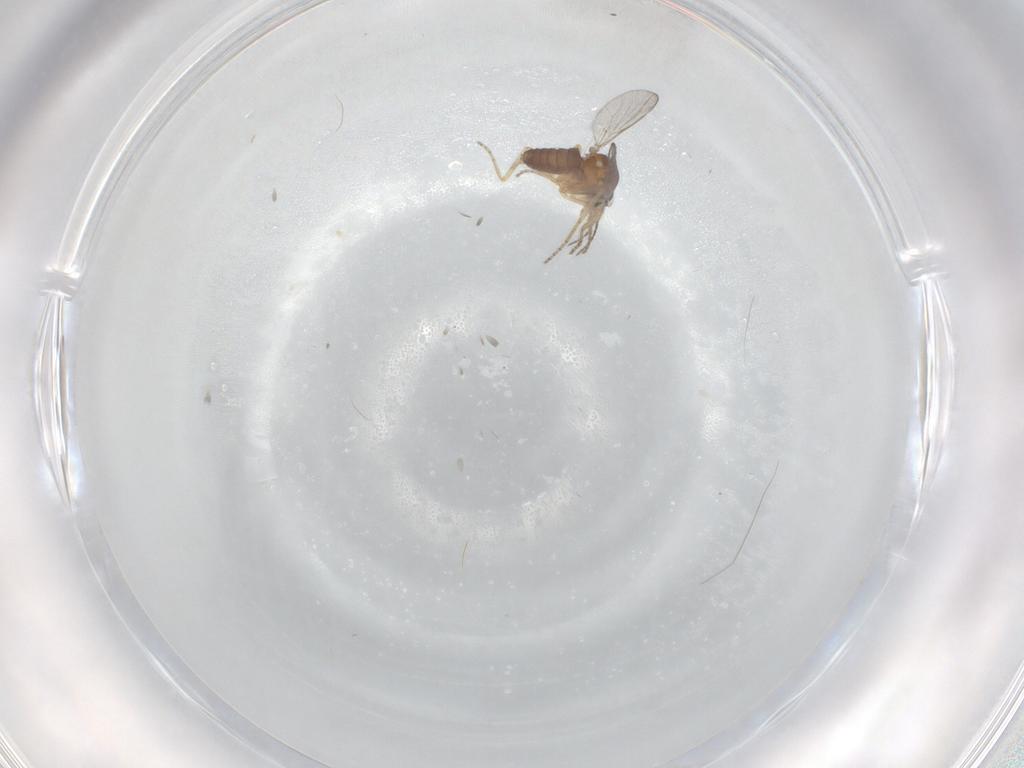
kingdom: Animalia
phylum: Arthropoda
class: Insecta
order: Diptera
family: Ceratopogonidae
